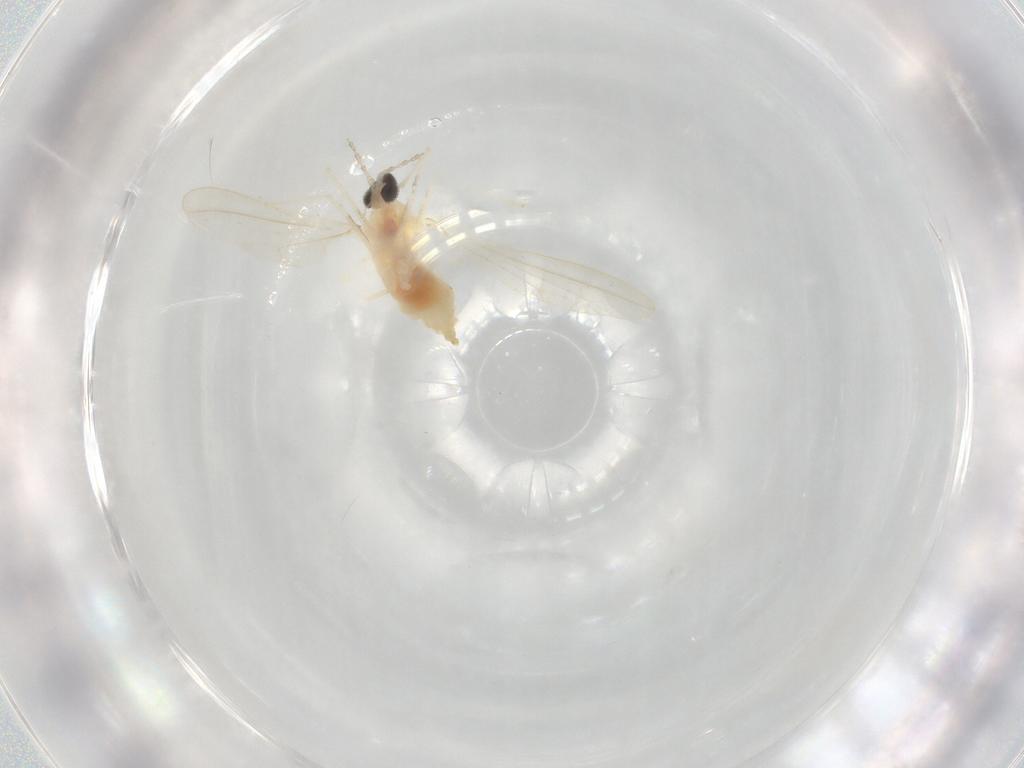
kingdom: Animalia
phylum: Arthropoda
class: Insecta
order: Diptera
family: Cecidomyiidae
